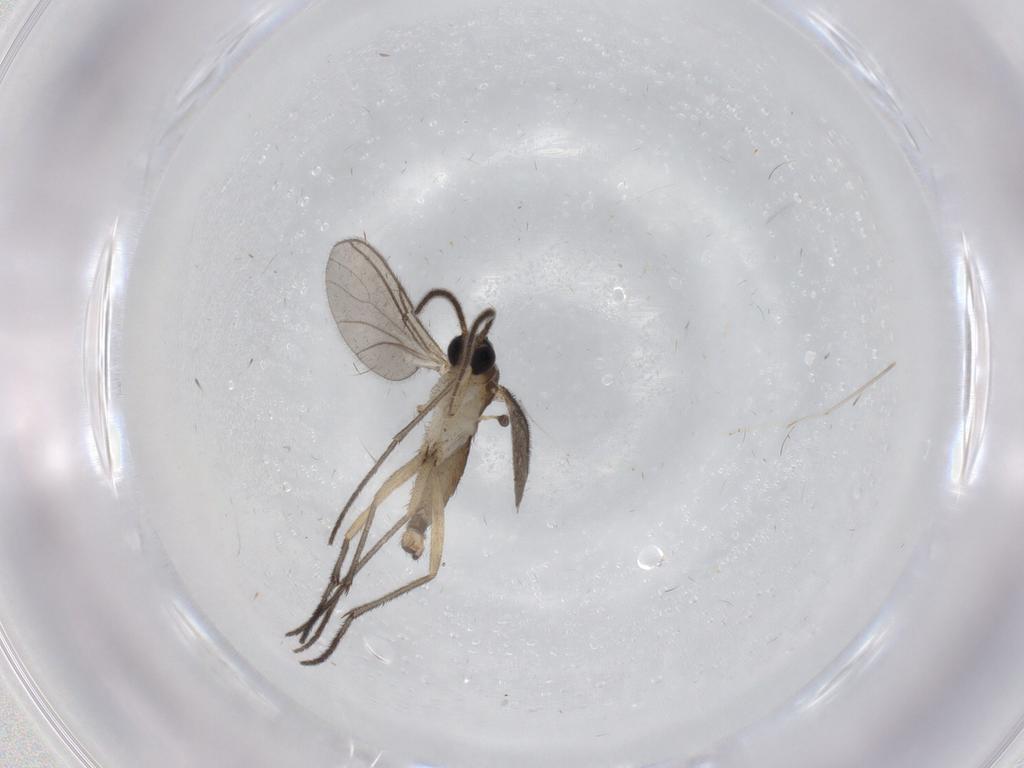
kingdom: Animalia
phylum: Arthropoda
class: Insecta
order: Diptera
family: Sciaridae
